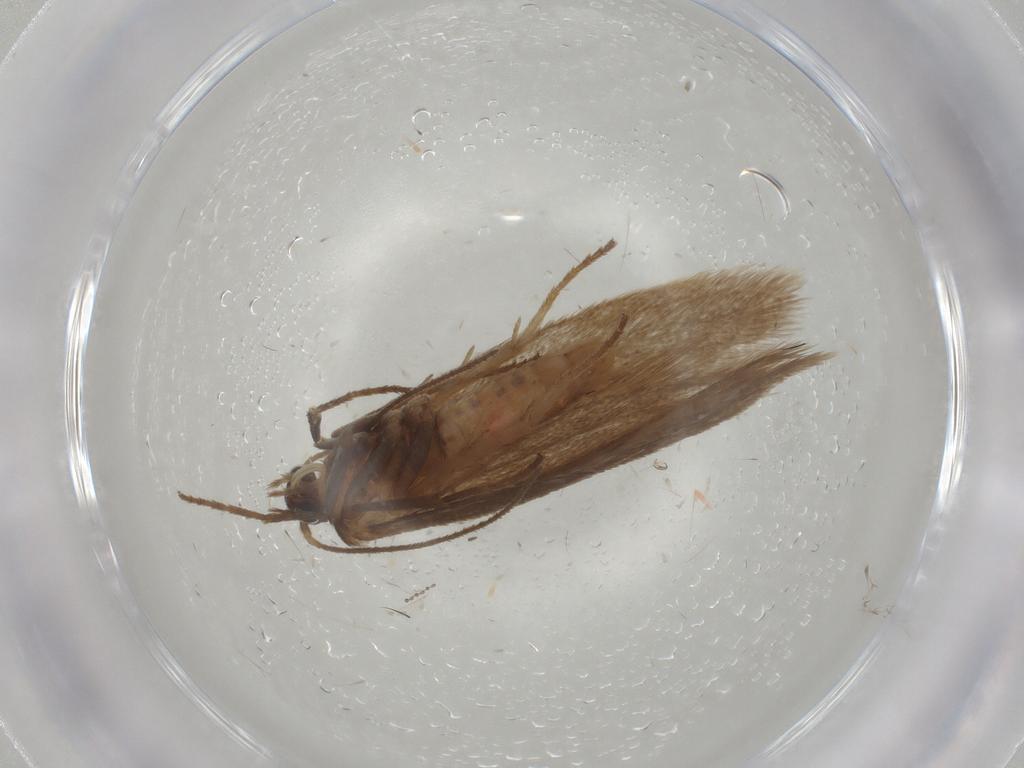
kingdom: Animalia
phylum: Arthropoda
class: Insecta
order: Lepidoptera
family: Limacodidae
